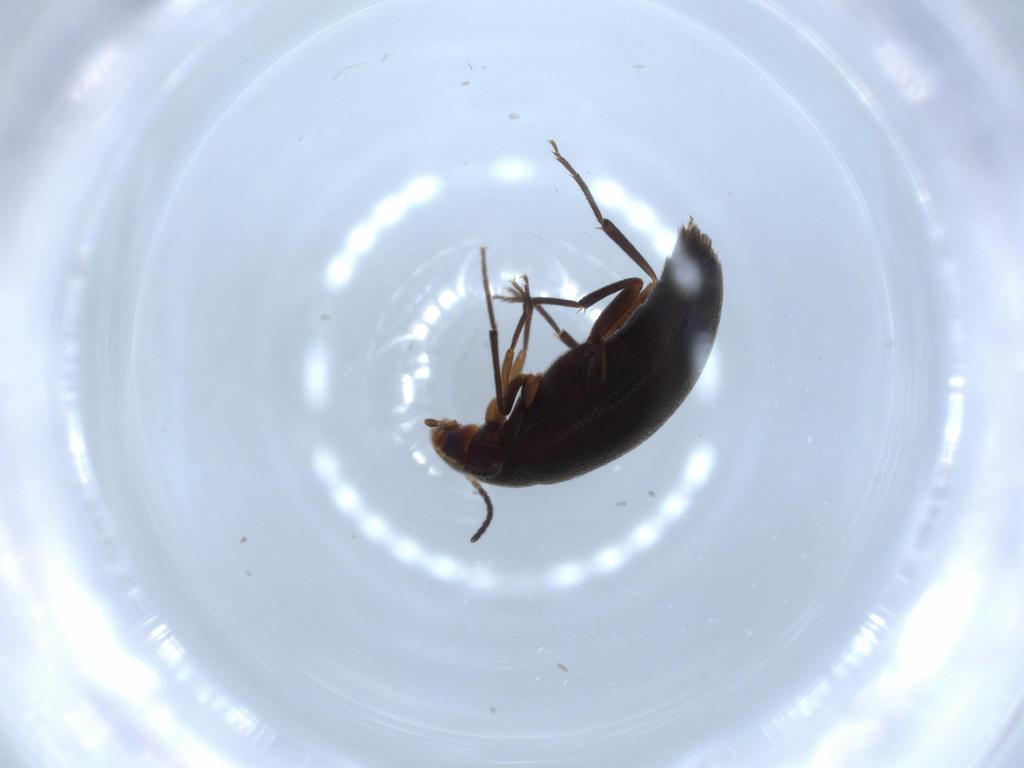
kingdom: Animalia
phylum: Arthropoda
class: Insecta
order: Coleoptera
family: Melandryidae
